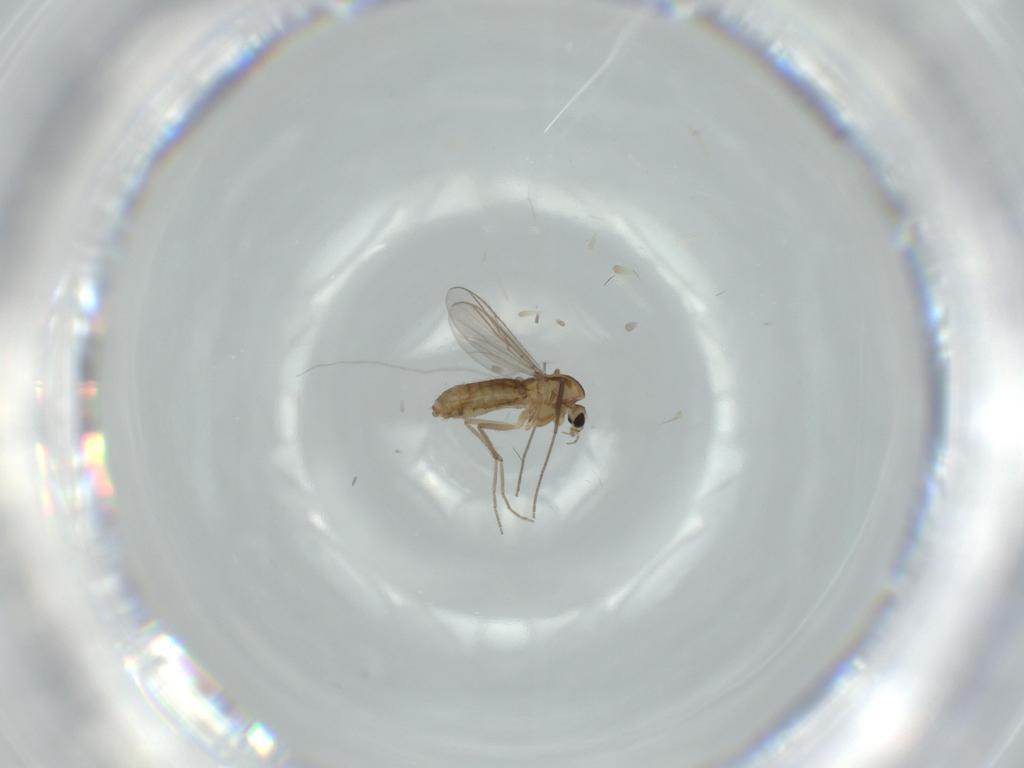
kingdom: Animalia
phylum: Arthropoda
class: Insecta
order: Diptera
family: Chironomidae
